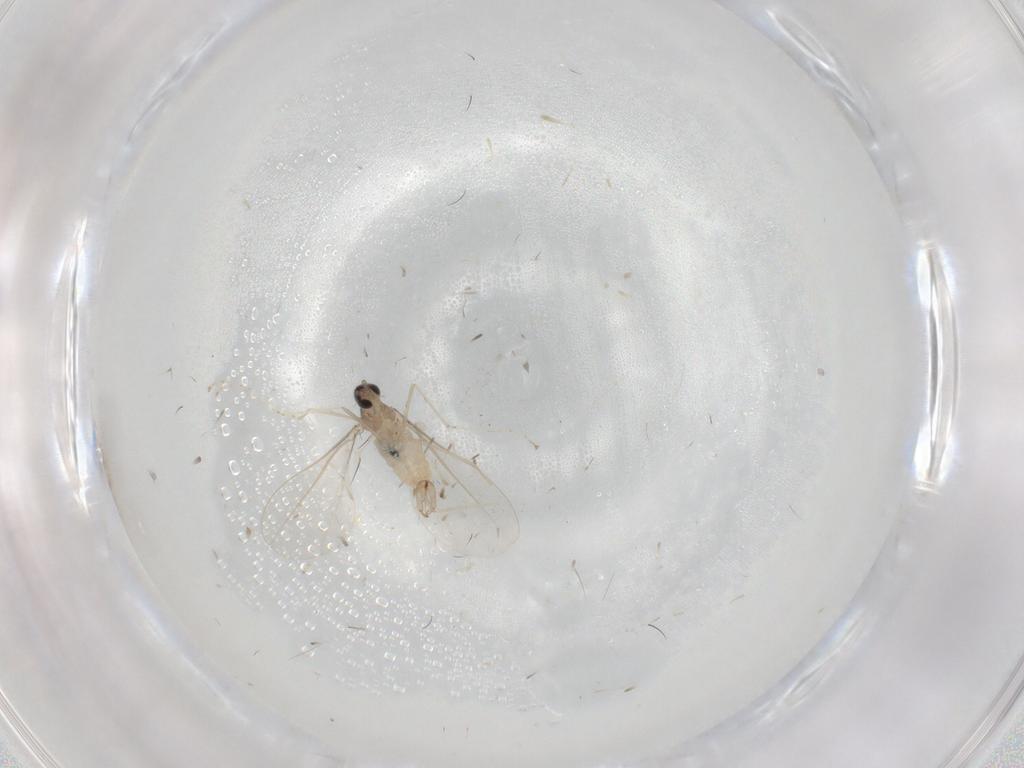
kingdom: Animalia
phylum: Arthropoda
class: Insecta
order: Diptera
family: Cecidomyiidae
